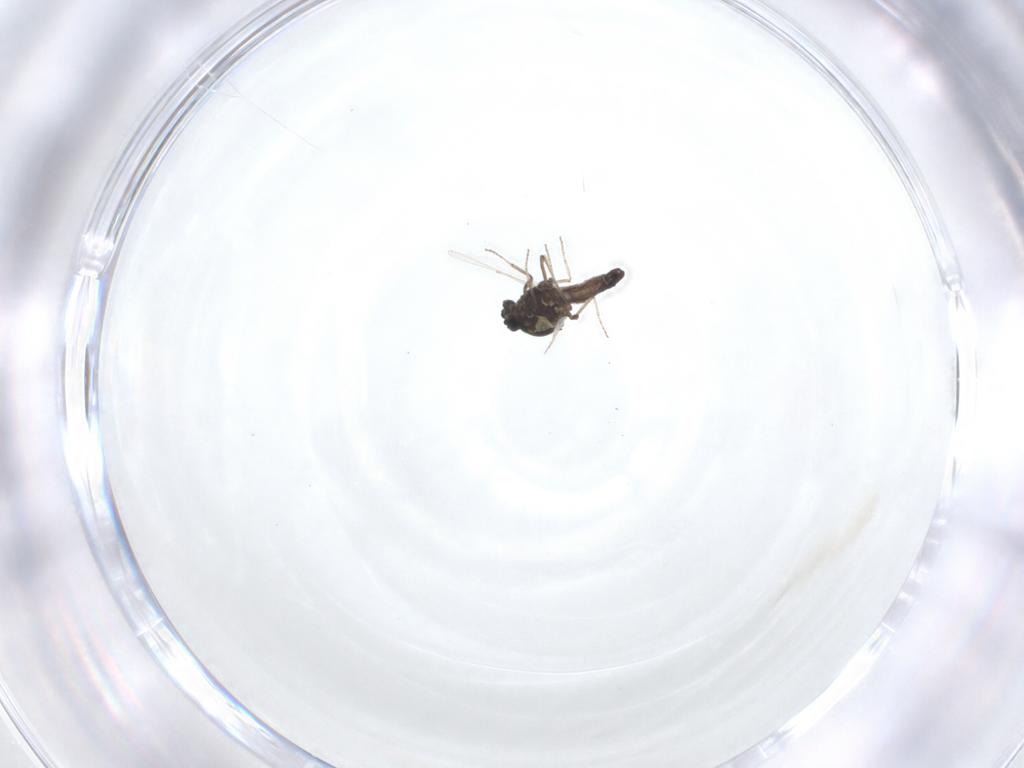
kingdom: Animalia
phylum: Arthropoda
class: Insecta
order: Diptera
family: Ceratopogonidae
